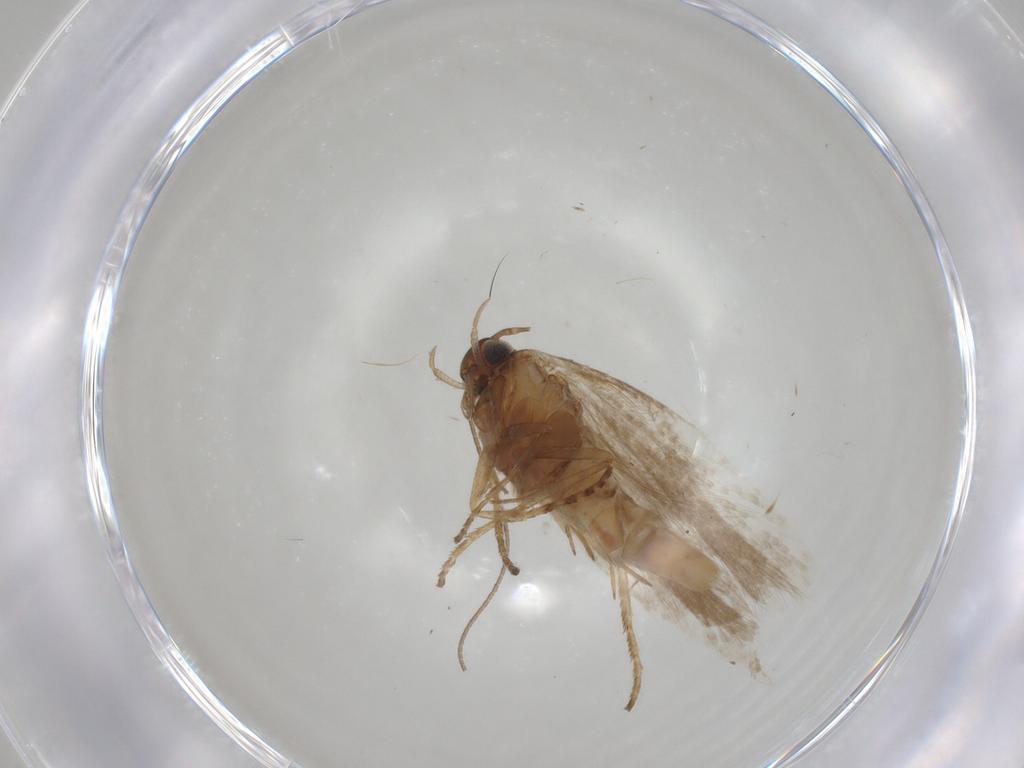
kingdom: Animalia
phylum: Arthropoda
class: Insecta
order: Lepidoptera
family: Gelechiidae
